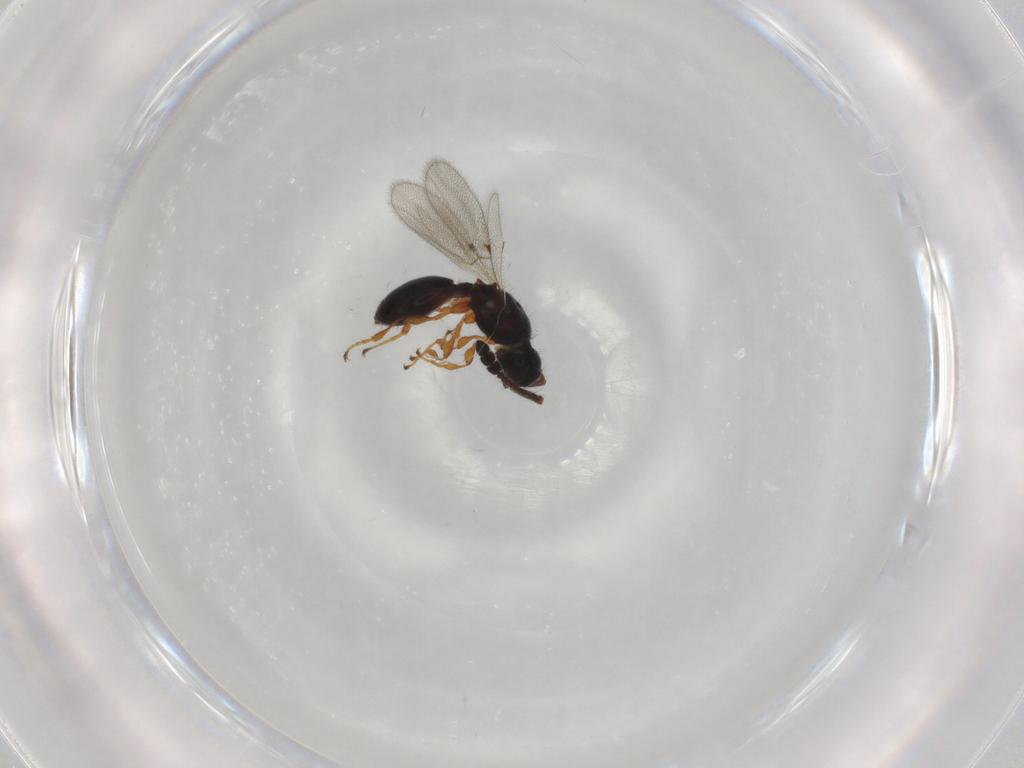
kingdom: Animalia
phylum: Arthropoda
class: Insecta
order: Hymenoptera
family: Diapriidae
